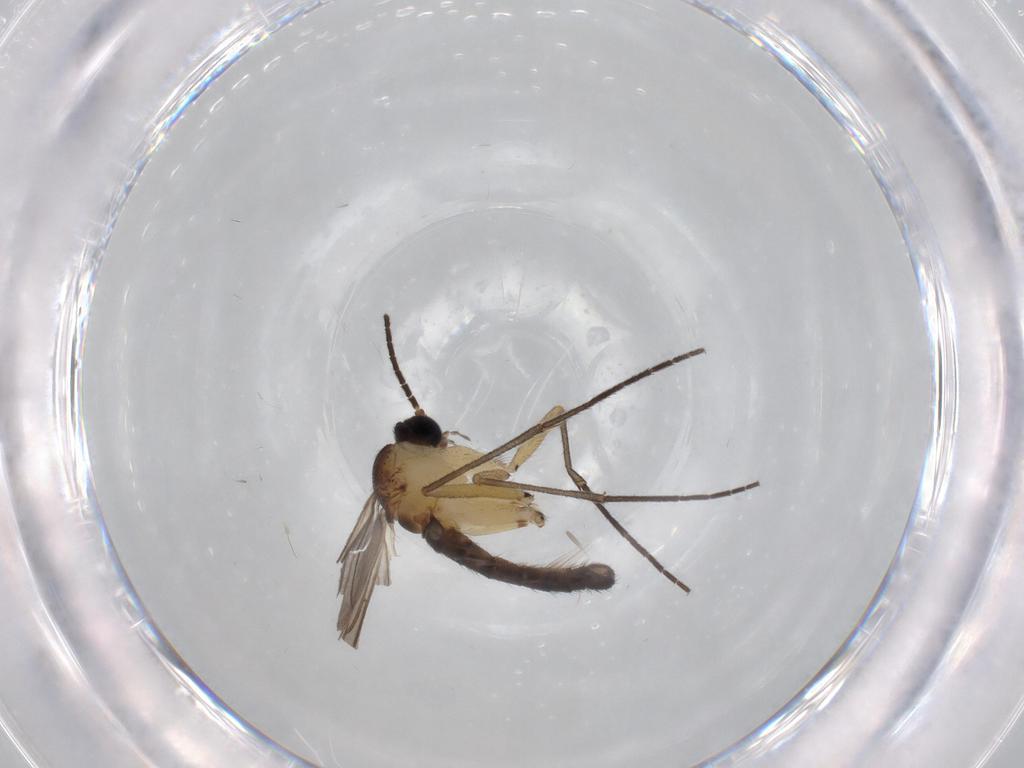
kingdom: Animalia
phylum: Arthropoda
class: Insecta
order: Diptera
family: Sciaridae
